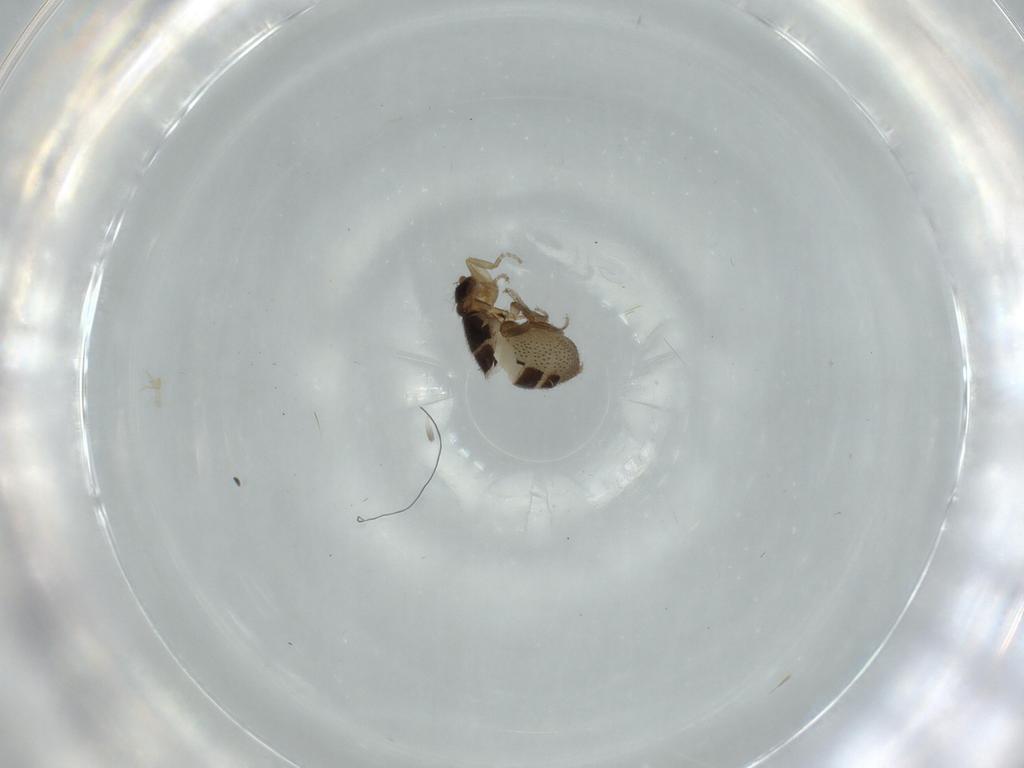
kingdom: Animalia
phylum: Arthropoda
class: Insecta
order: Diptera
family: Phoridae
